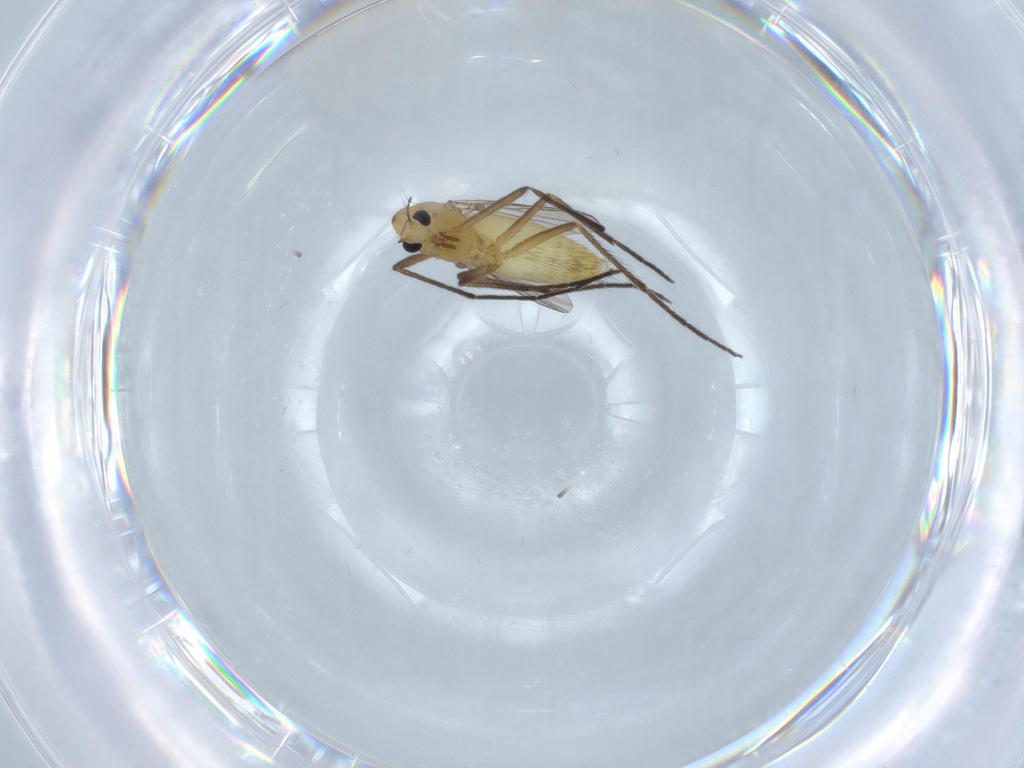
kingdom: Animalia
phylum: Arthropoda
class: Insecta
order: Diptera
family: Chironomidae
